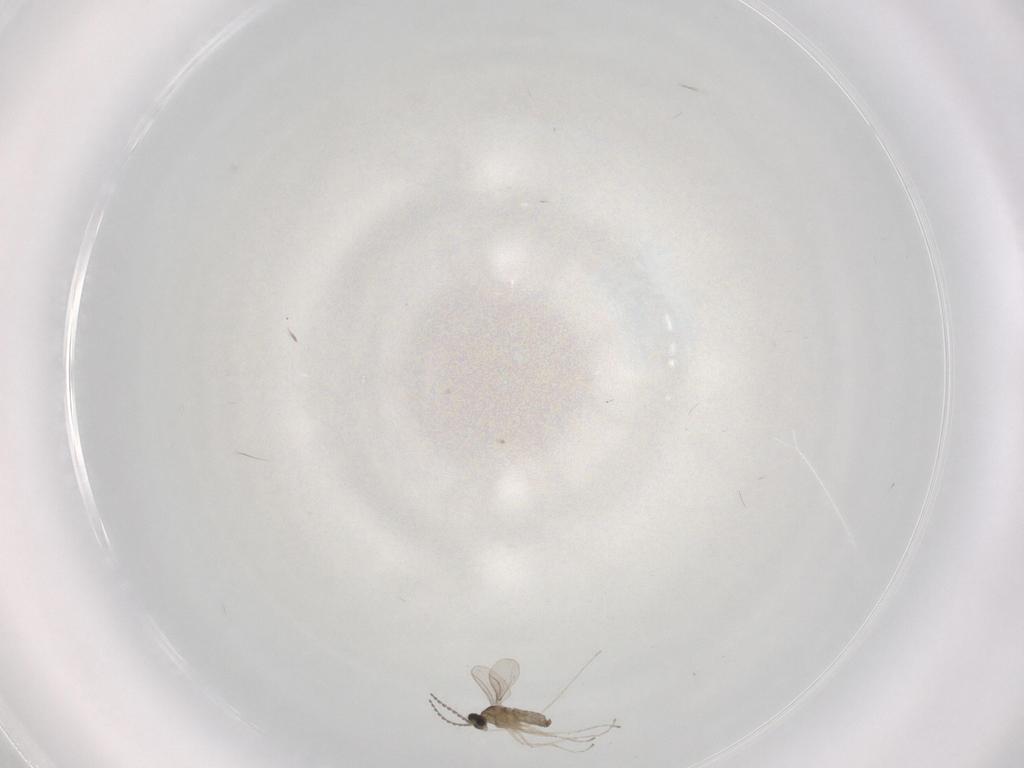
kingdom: Animalia
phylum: Arthropoda
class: Insecta
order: Diptera
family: Cecidomyiidae
